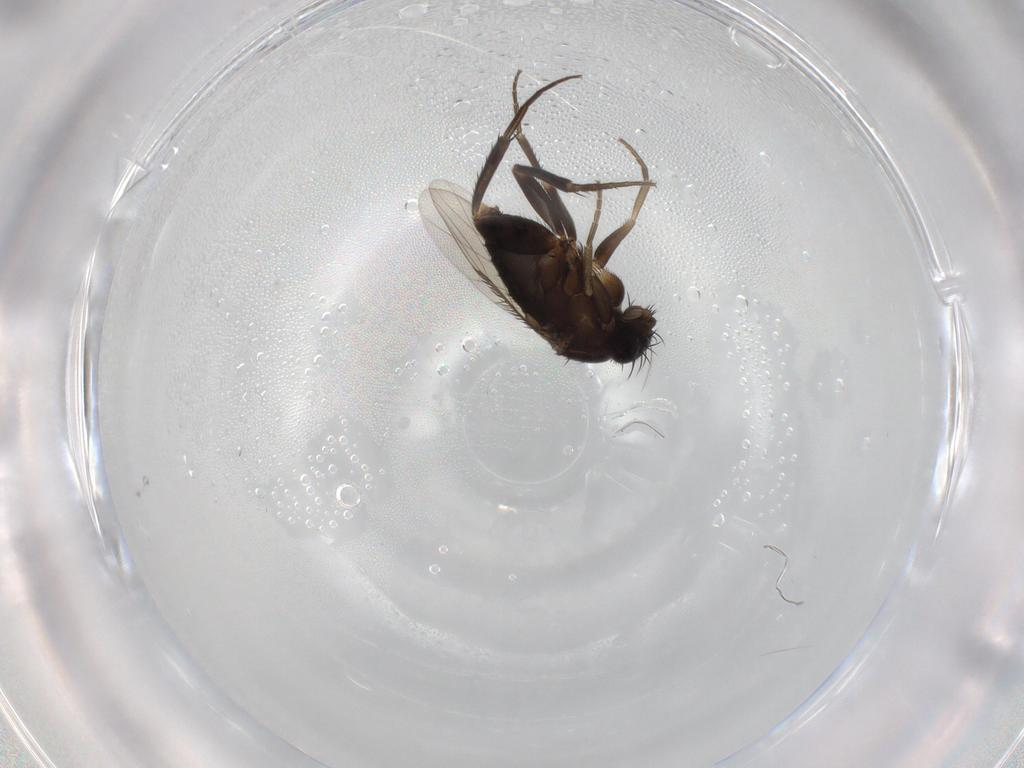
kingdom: Animalia
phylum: Arthropoda
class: Insecta
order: Diptera
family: Phoridae
